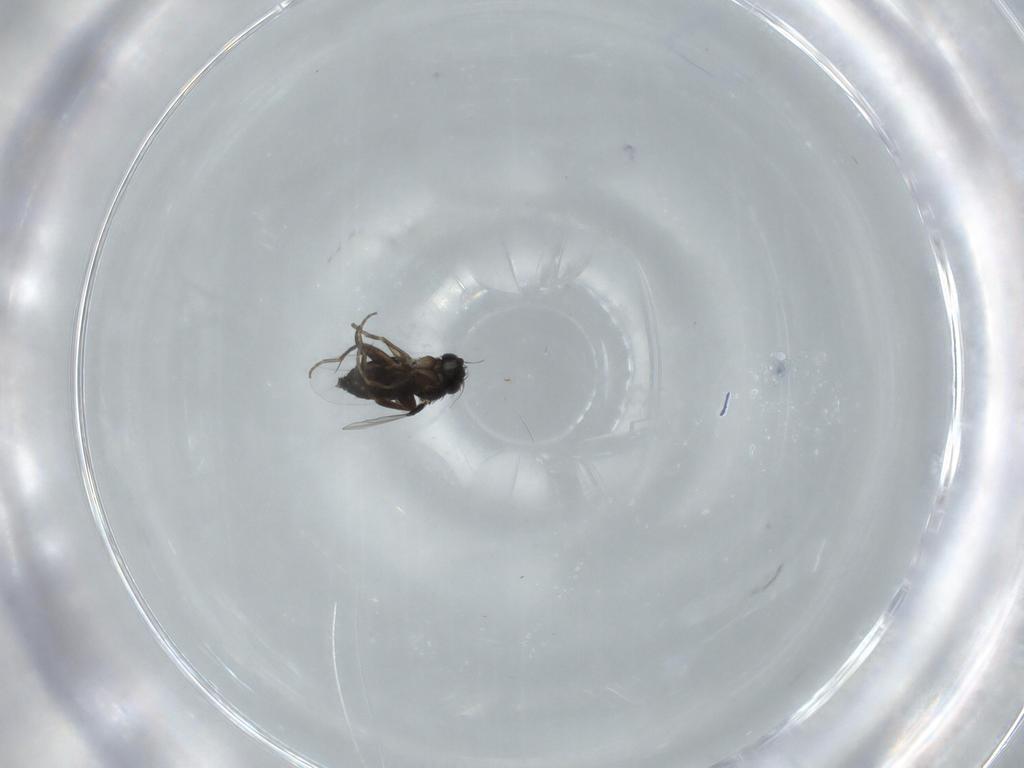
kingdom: Animalia
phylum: Arthropoda
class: Insecta
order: Diptera
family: Phoridae
